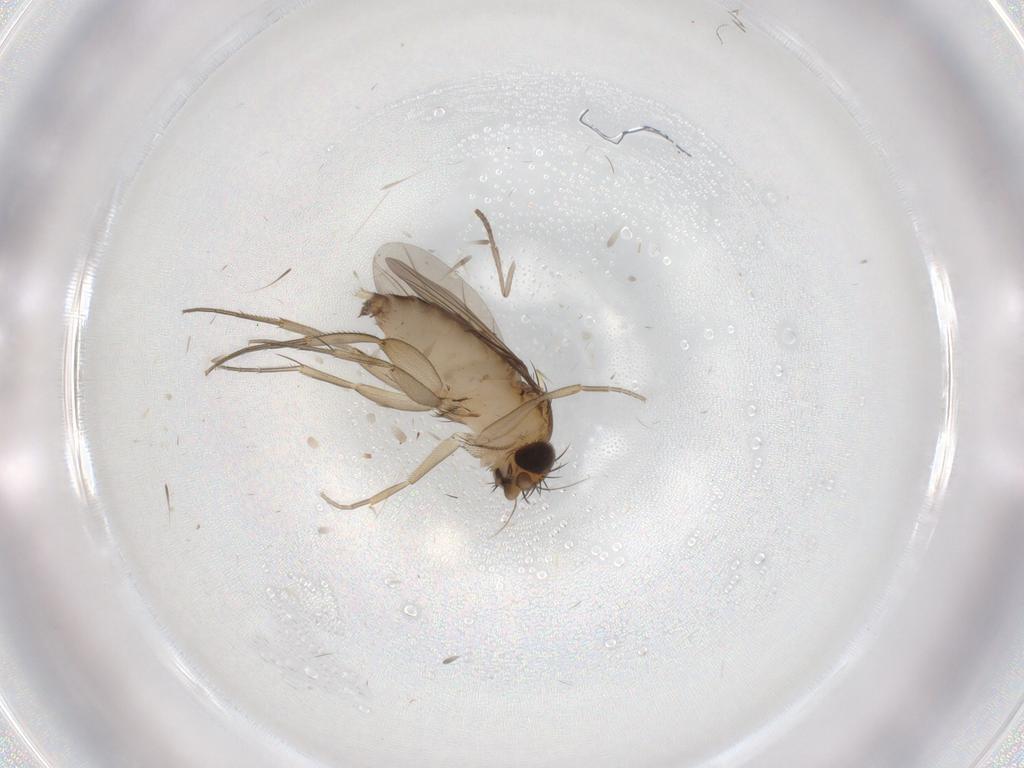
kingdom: Animalia
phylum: Arthropoda
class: Insecta
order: Diptera
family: Phoridae
